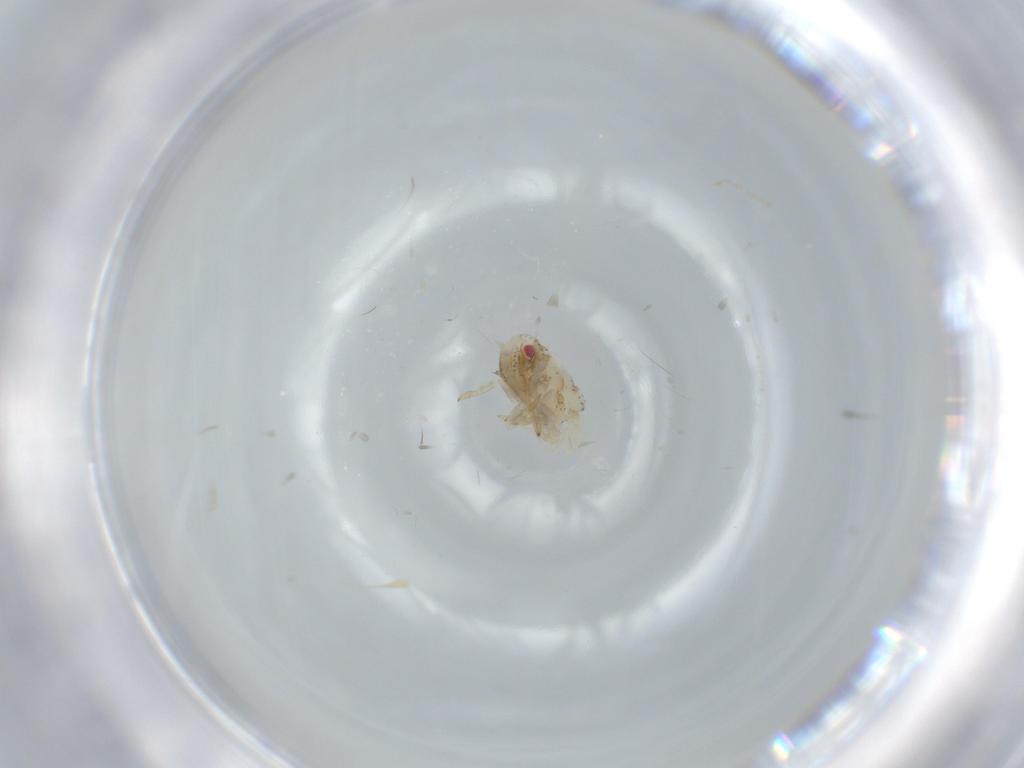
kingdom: Animalia
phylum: Arthropoda
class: Insecta
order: Hemiptera
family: Acanaloniidae
